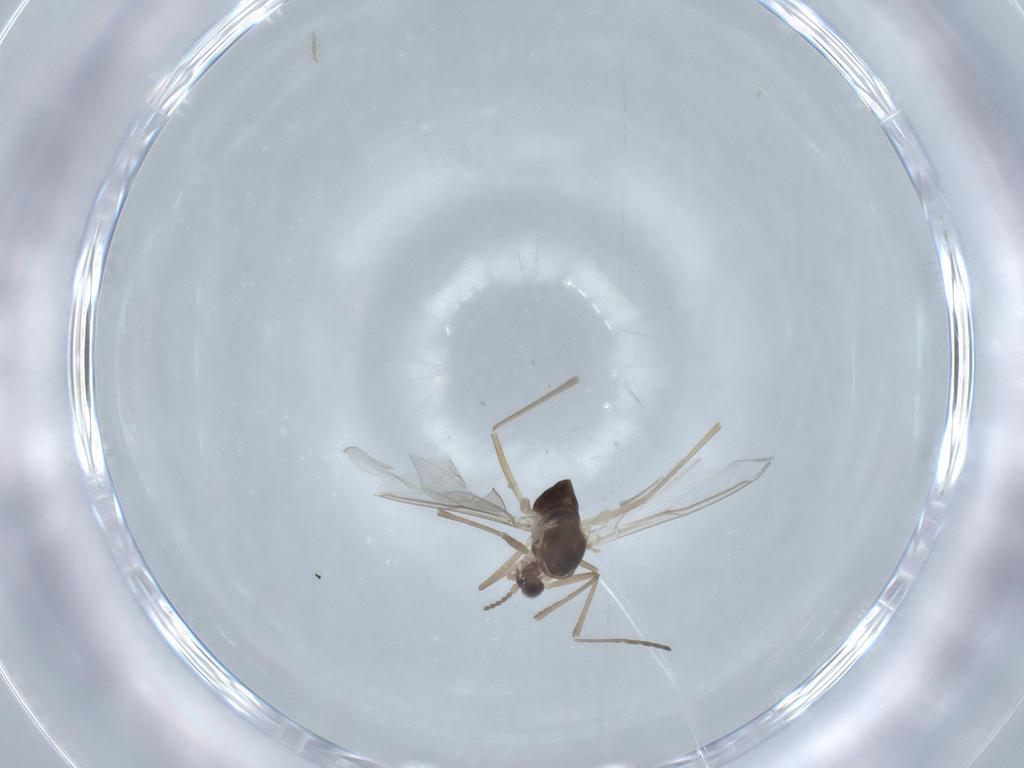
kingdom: Animalia
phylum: Arthropoda
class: Insecta
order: Diptera
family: Cecidomyiidae
